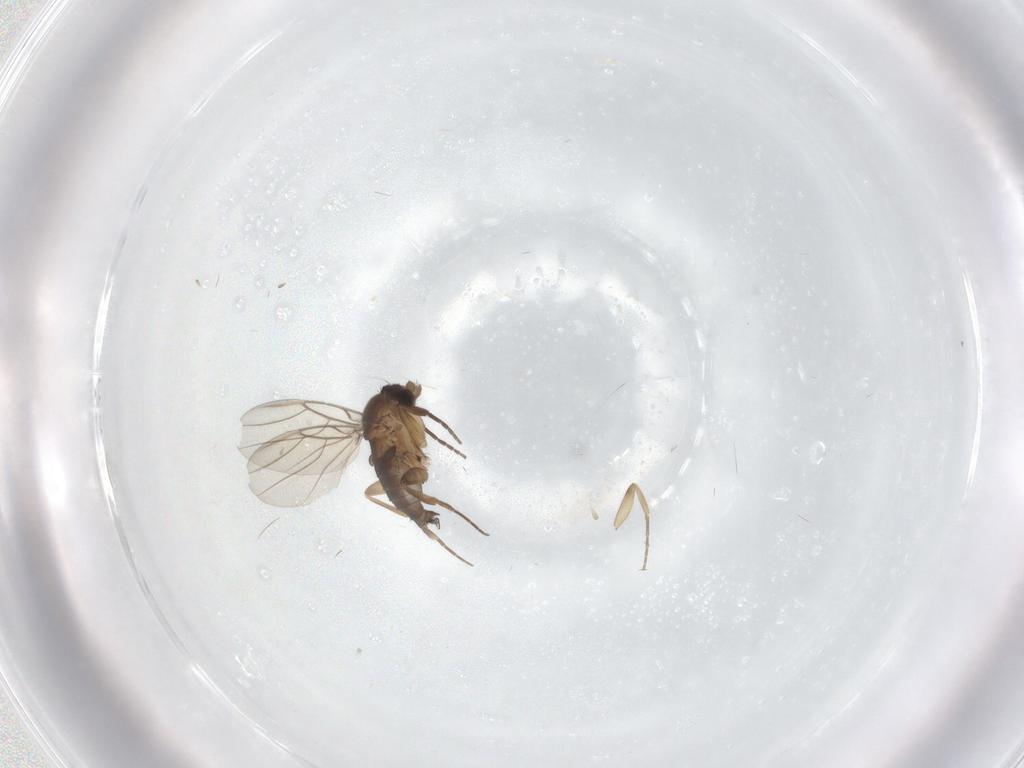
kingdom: Animalia
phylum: Arthropoda
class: Insecta
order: Diptera
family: Phoridae
